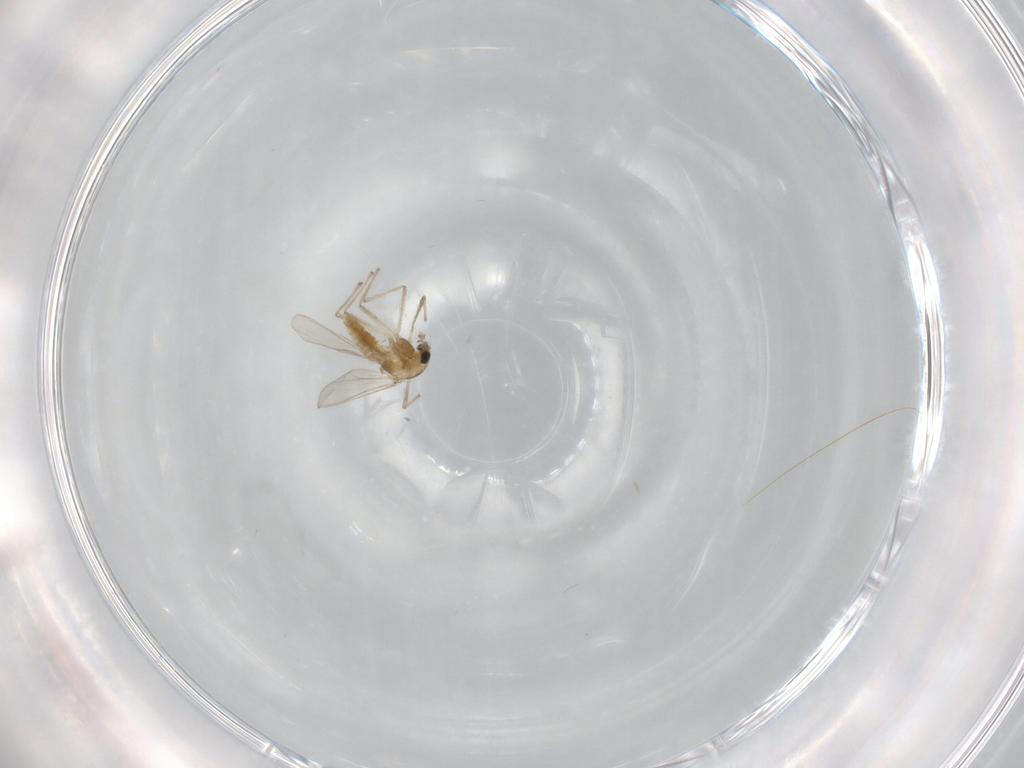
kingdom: Animalia
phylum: Arthropoda
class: Insecta
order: Diptera
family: Chironomidae
